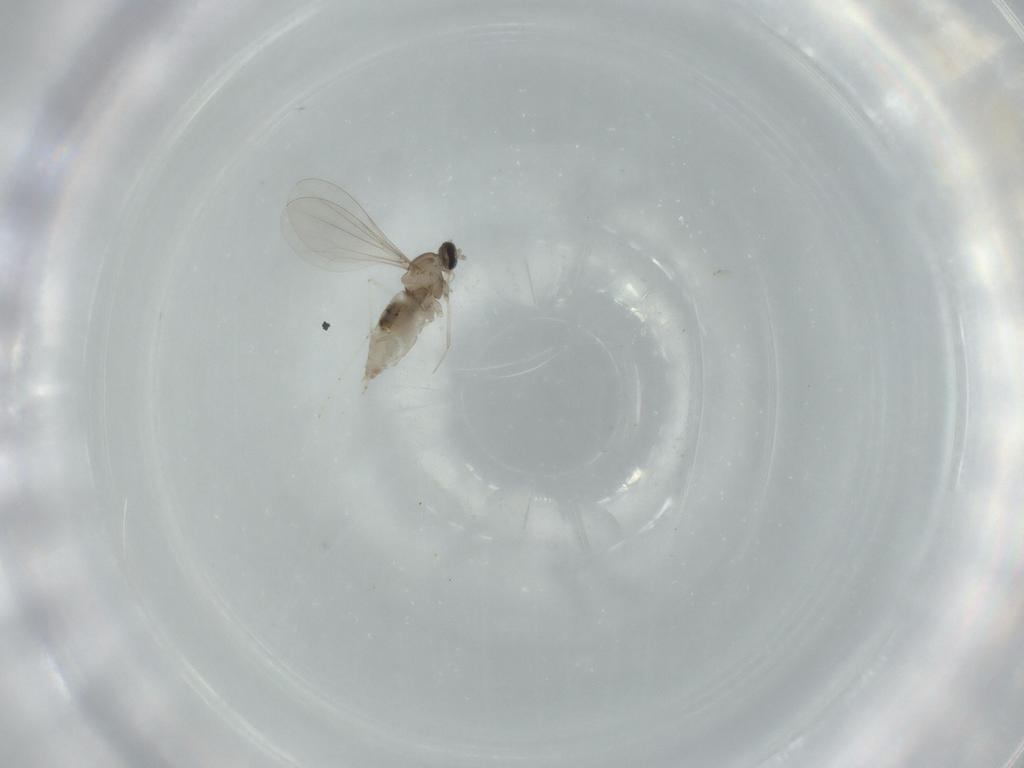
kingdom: Animalia
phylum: Arthropoda
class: Insecta
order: Diptera
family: Cecidomyiidae
